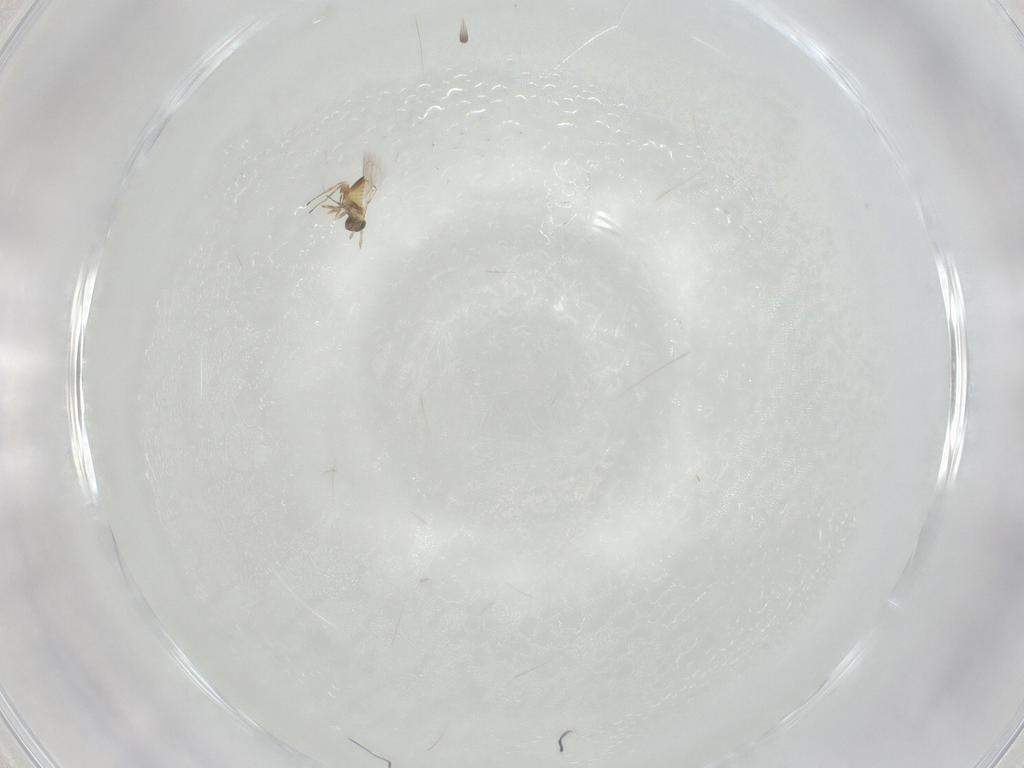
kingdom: Animalia
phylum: Arthropoda
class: Insecta
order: Hymenoptera
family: Trichogrammatidae
